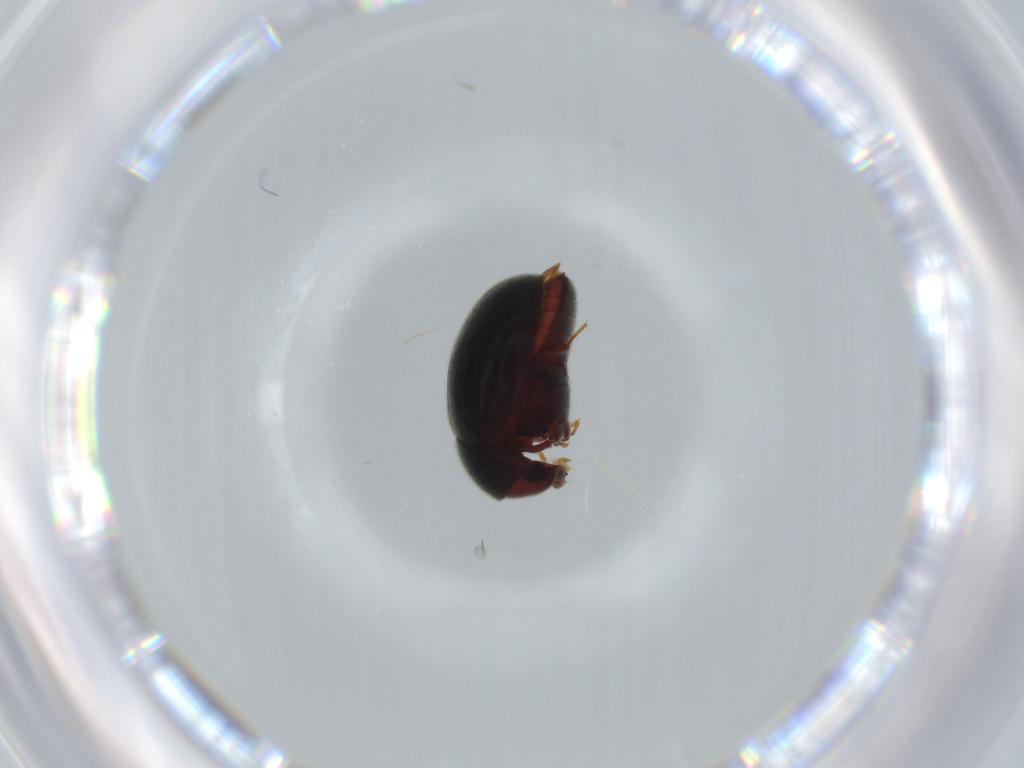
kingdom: Animalia
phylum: Arthropoda
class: Insecta
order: Coleoptera
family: Ptinidae
